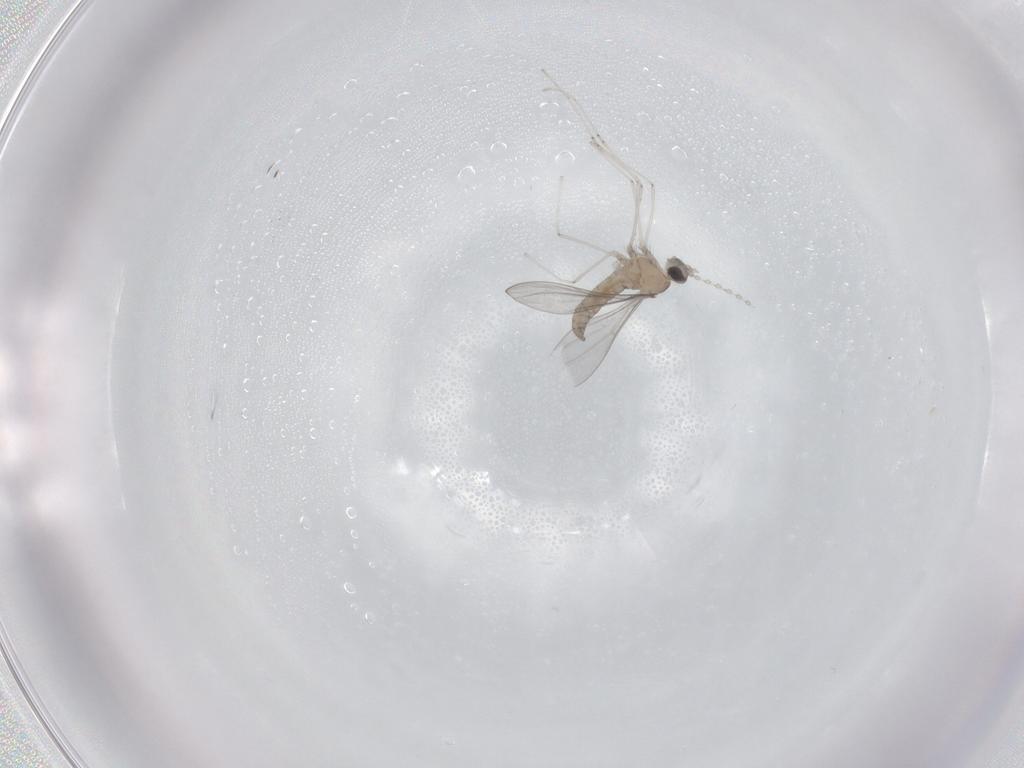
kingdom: Animalia
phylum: Arthropoda
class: Insecta
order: Diptera
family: Cecidomyiidae
